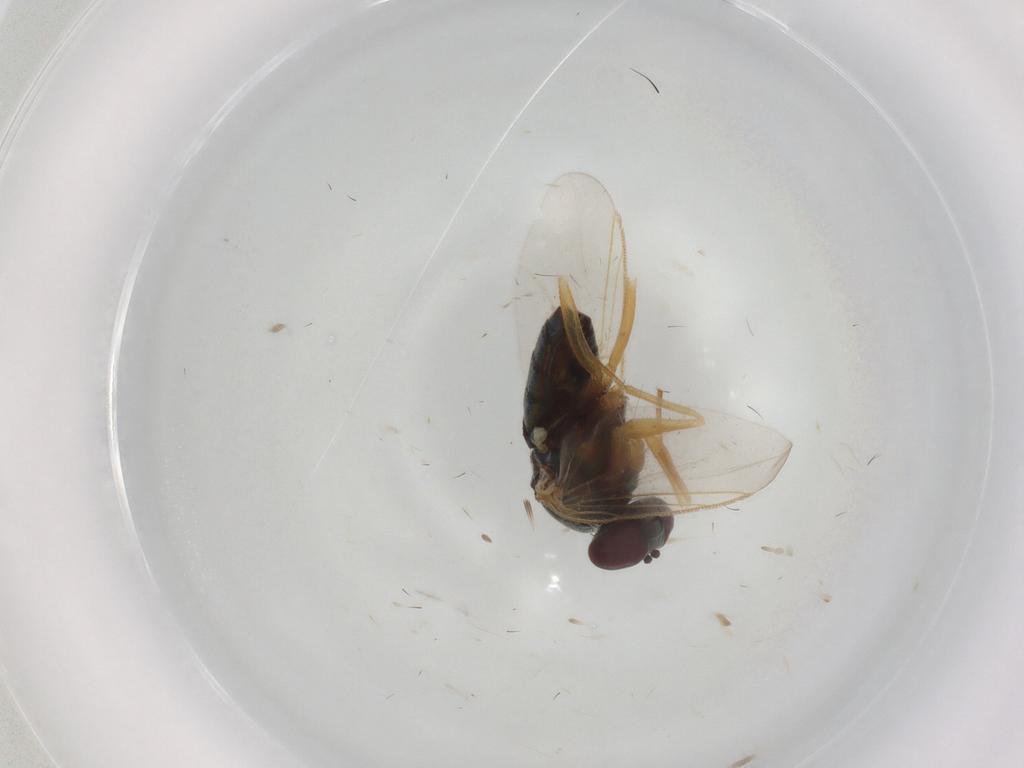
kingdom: Animalia
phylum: Arthropoda
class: Insecta
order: Diptera
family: Dolichopodidae
